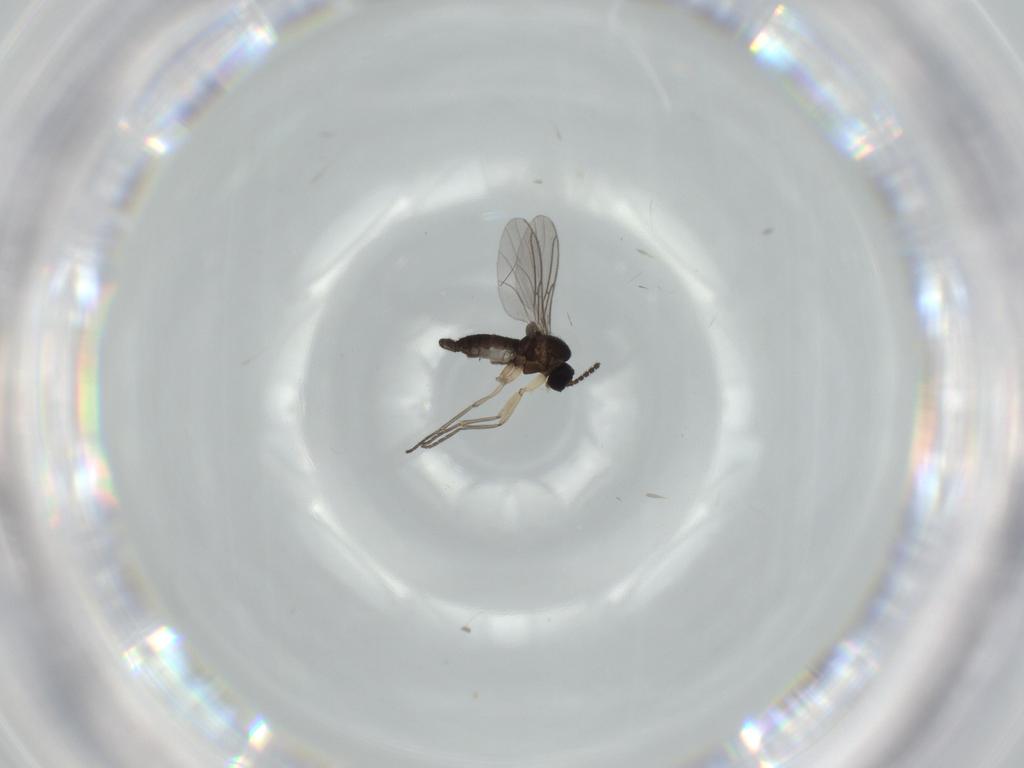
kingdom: Animalia
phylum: Arthropoda
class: Insecta
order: Diptera
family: Sciaridae
